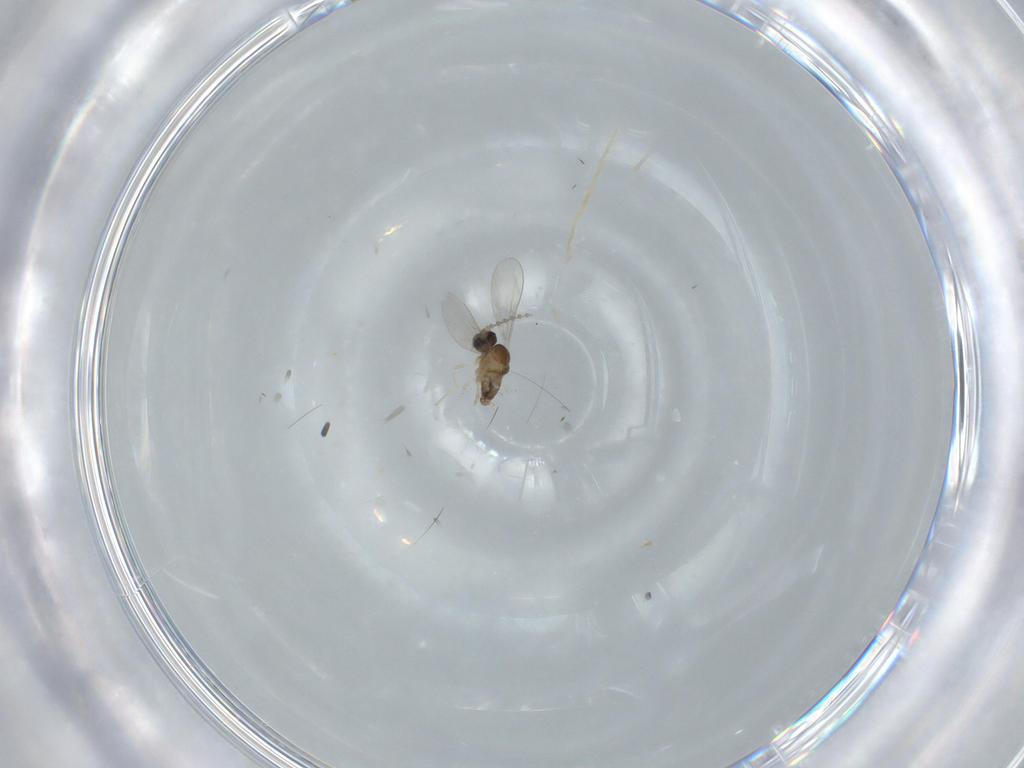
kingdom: Animalia
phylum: Arthropoda
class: Insecta
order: Diptera
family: Cecidomyiidae
